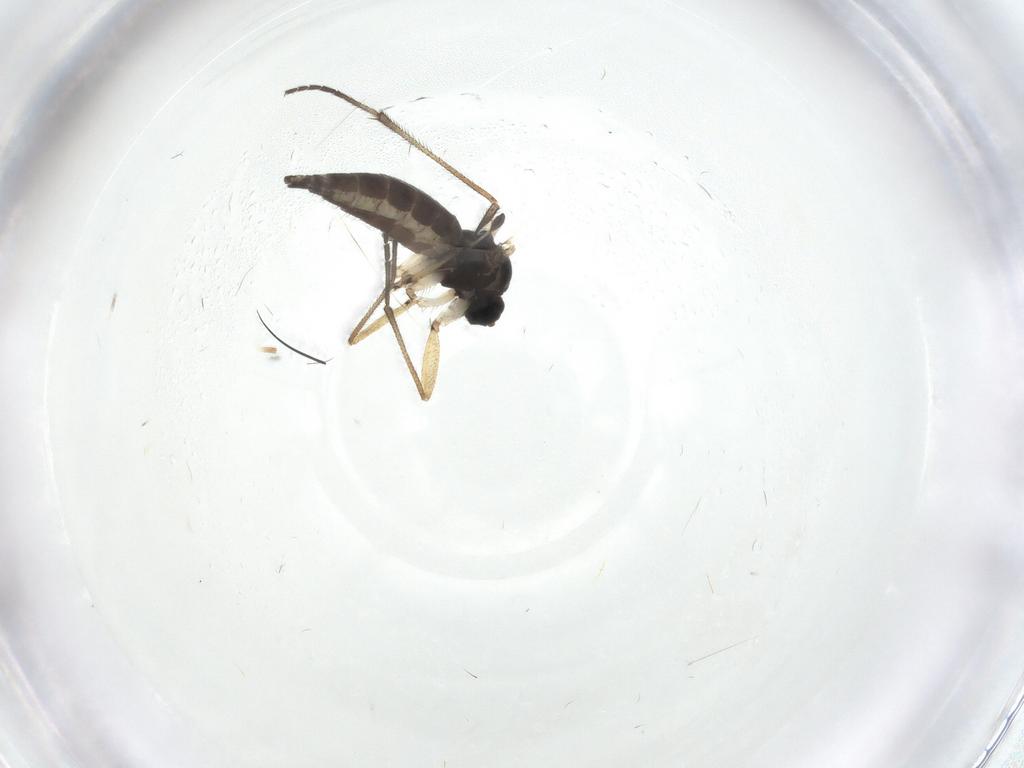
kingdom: Animalia
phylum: Arthropoda
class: Insecta
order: Diptera
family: Sciaridae
